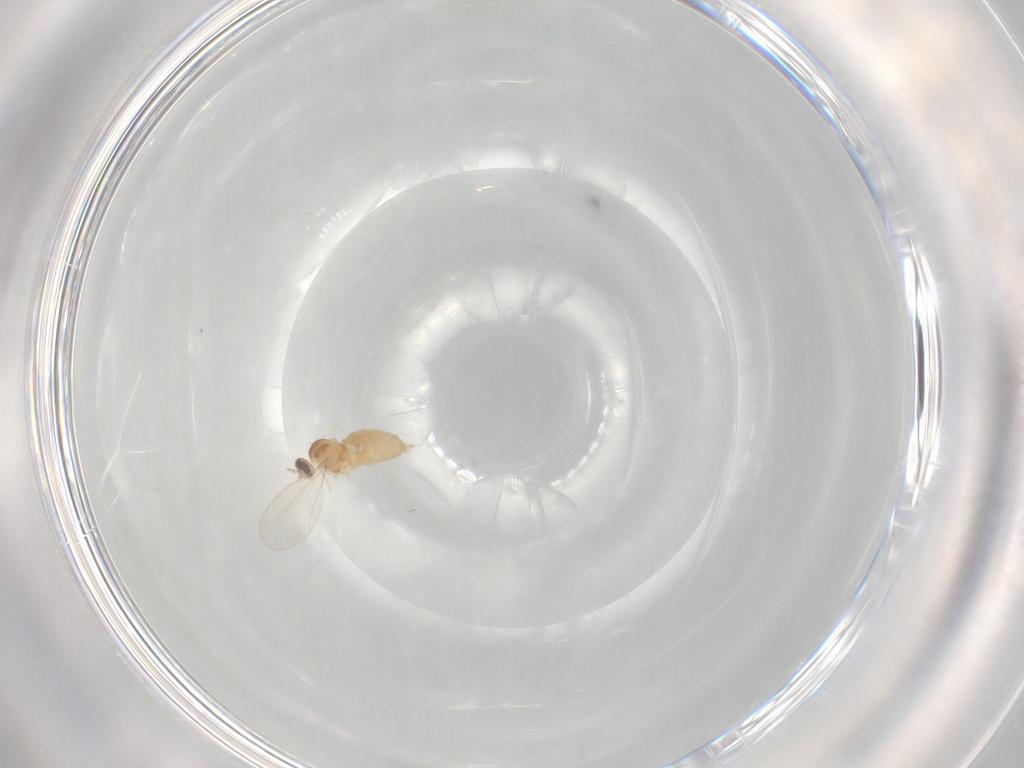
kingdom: Animalia
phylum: Arthropoda
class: Insecta
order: Diptera
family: Cecidomyiidae
